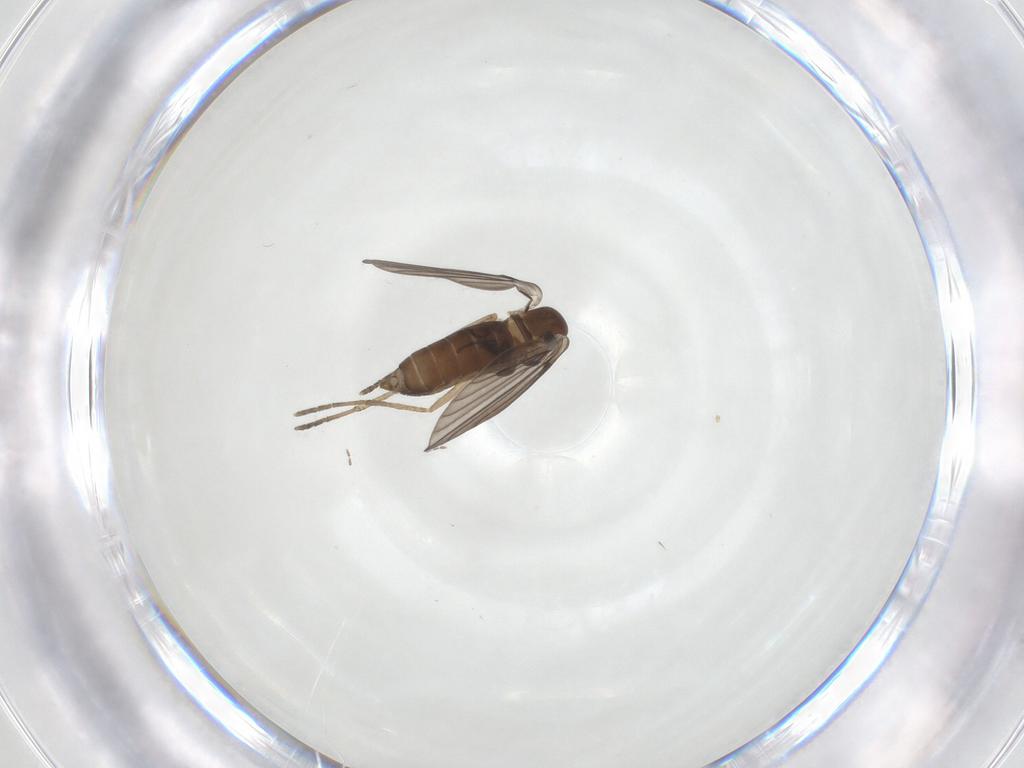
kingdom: Animalia
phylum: Arthropoda
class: Insecta
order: Diptera
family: Psychodidae
